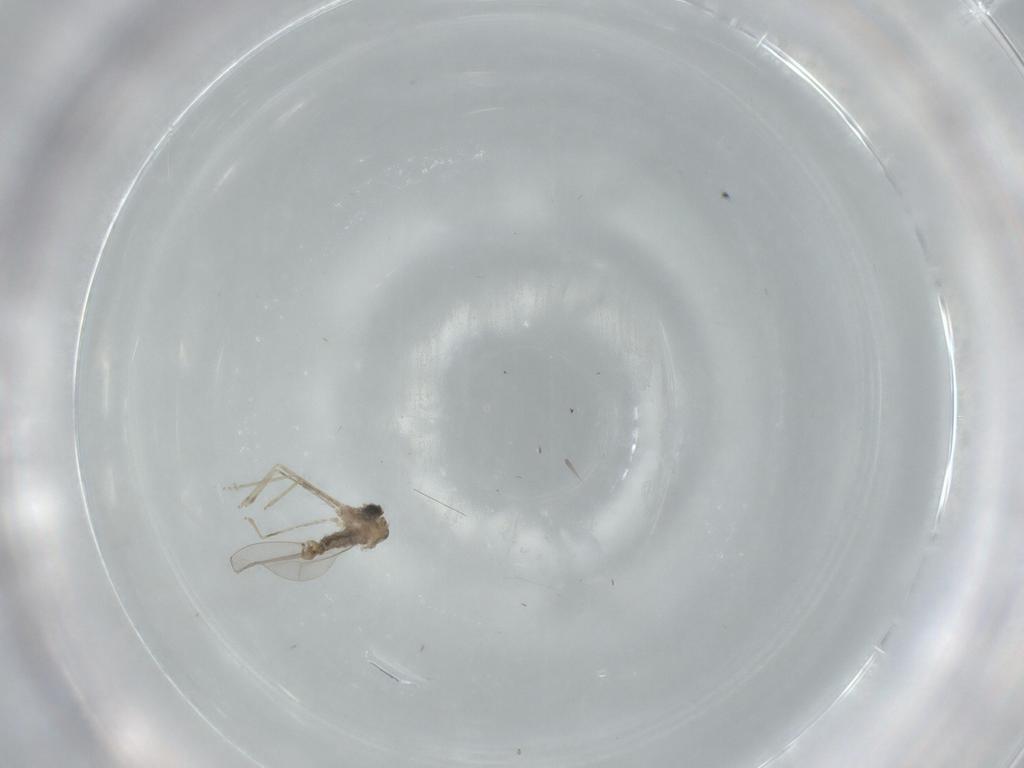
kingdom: Animalia
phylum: Arthropoda
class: Insecta
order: Diptera
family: Cecidomyiidae
